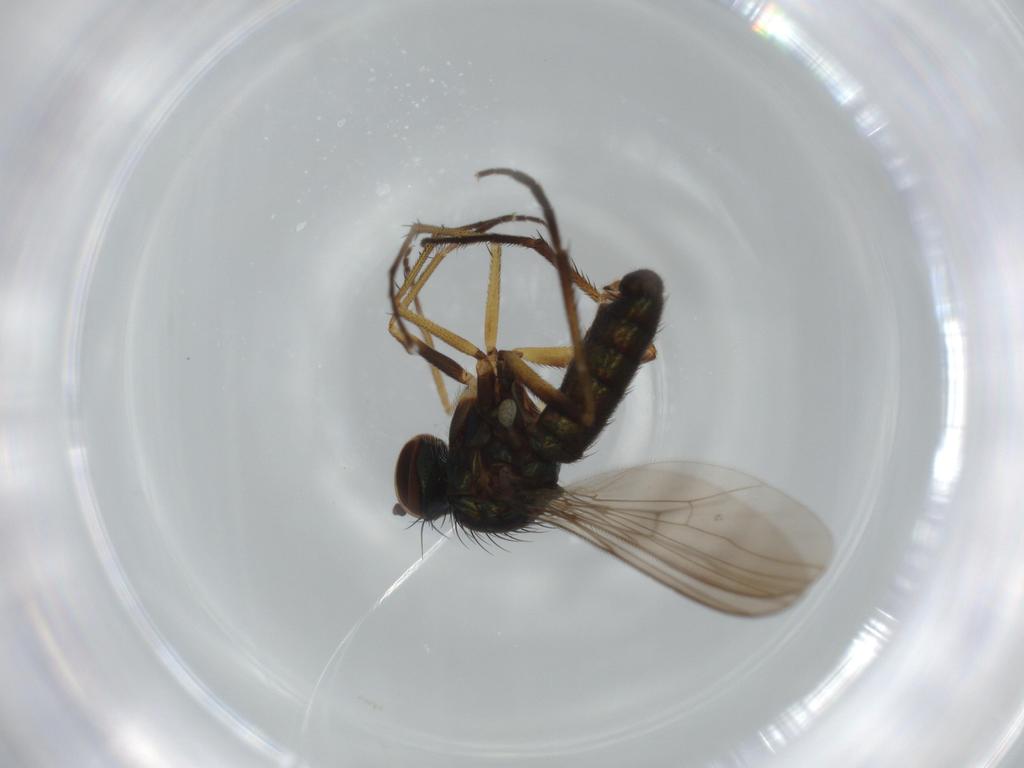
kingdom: Animalia
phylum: Arthropoda
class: Insecta
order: Diptera
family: Dolichopodidae
